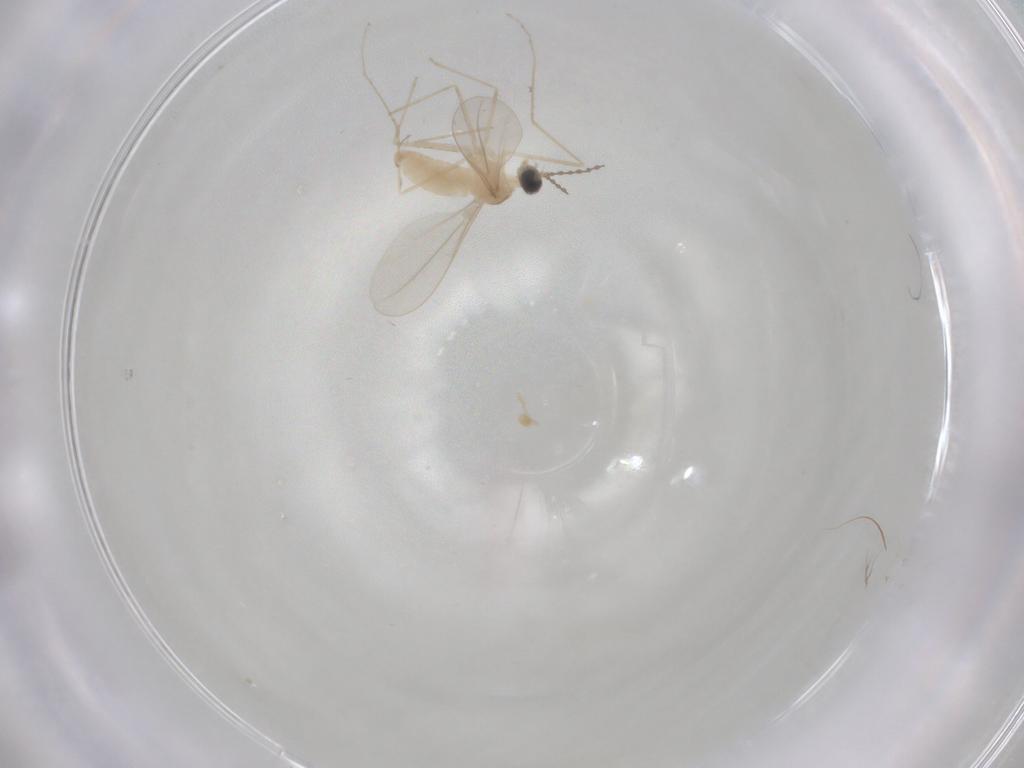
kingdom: Animalia
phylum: Arthropoda
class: Insecta
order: Diptera
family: Phoridae
